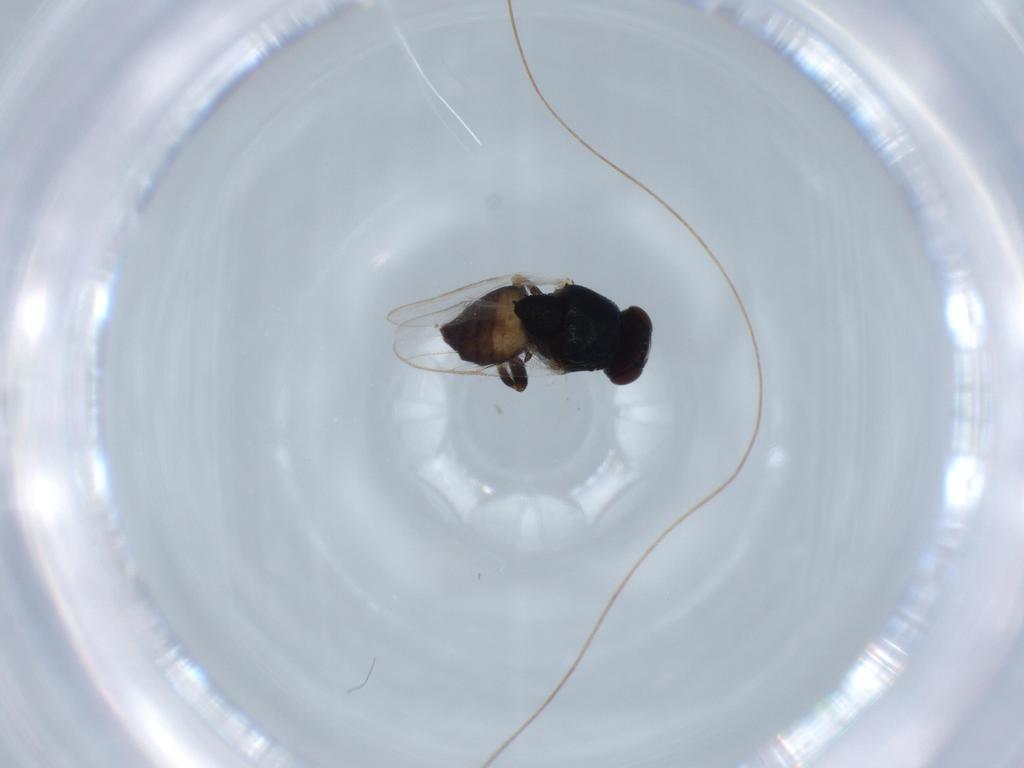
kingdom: Animalia
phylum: Arthropoda
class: Insecta
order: Diptera
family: Chloropidae
